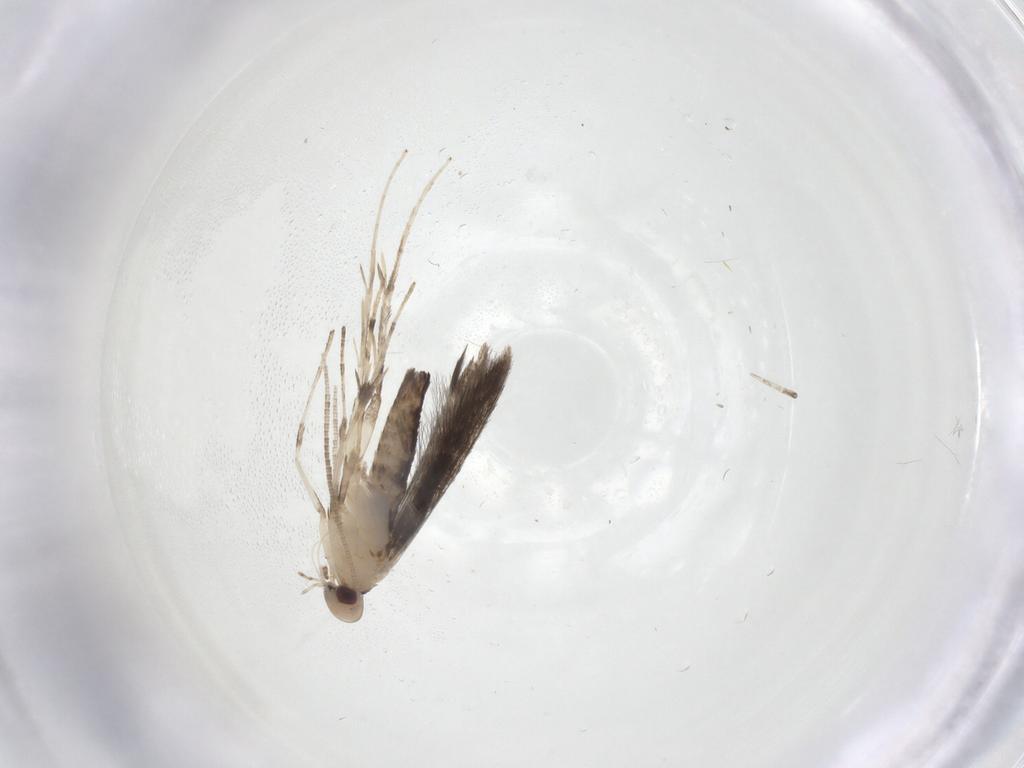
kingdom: Animalia
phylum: Arthropoda
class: Insecta
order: Lepidoptera
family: Gracillariidae
